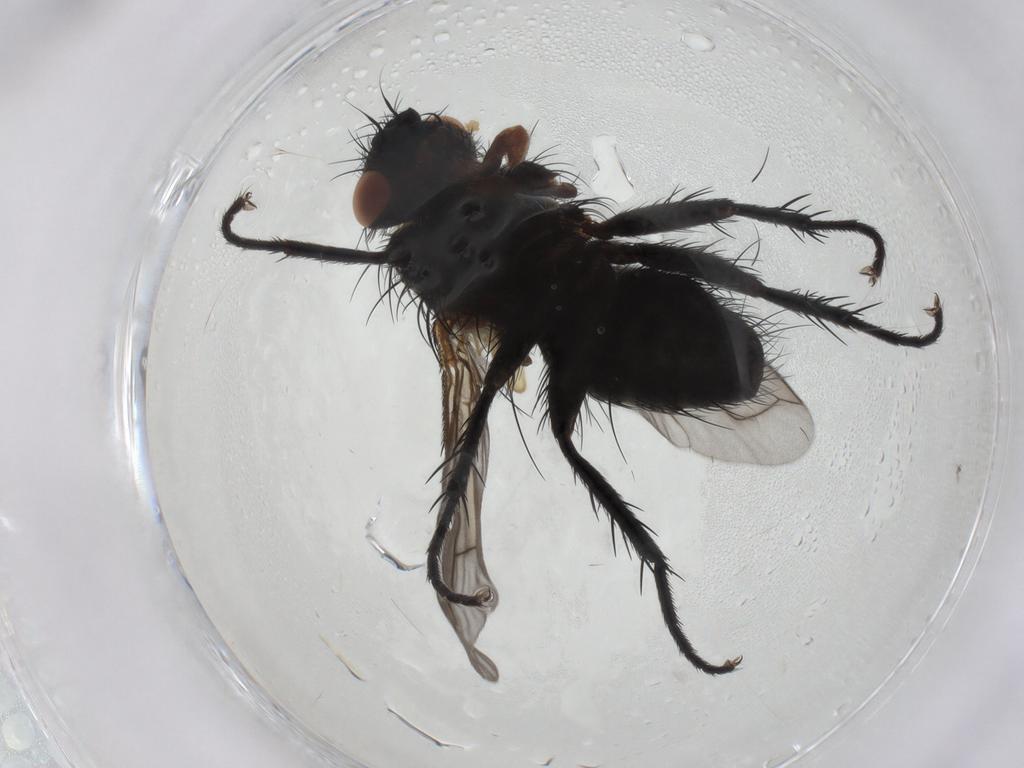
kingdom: Animalia
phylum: Arthropoda
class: Insecta
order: Diptera
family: Tachinidae
